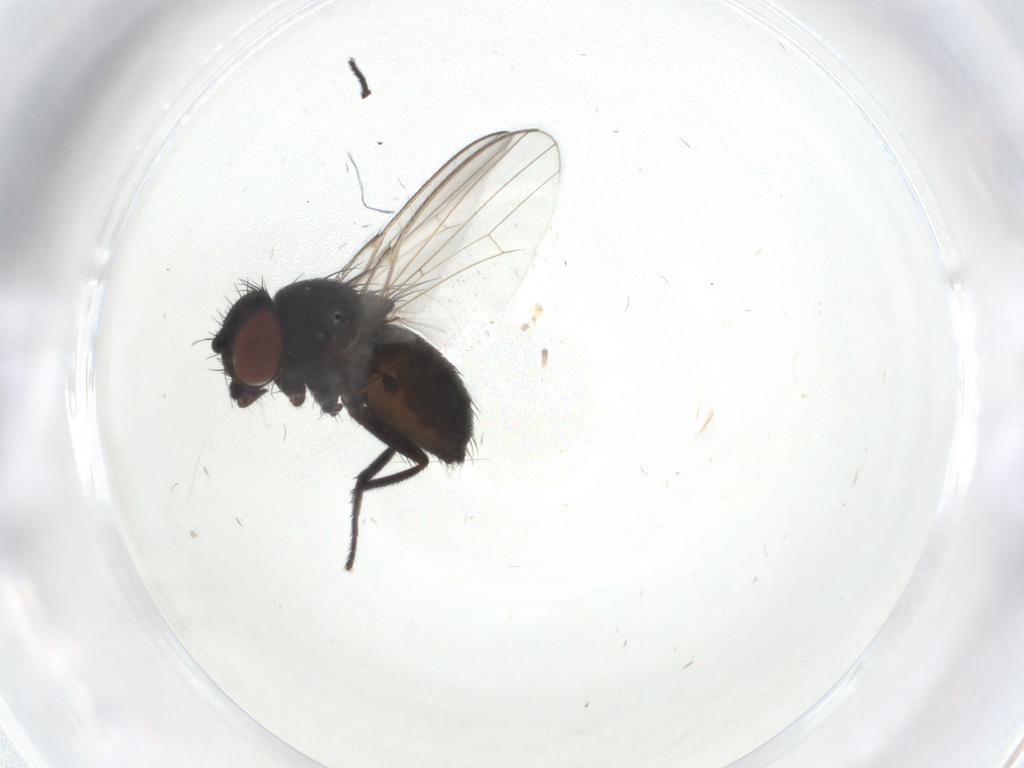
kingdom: Animalia
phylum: Arthropoda
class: Insecta
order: Diptera
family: Milichiidae
